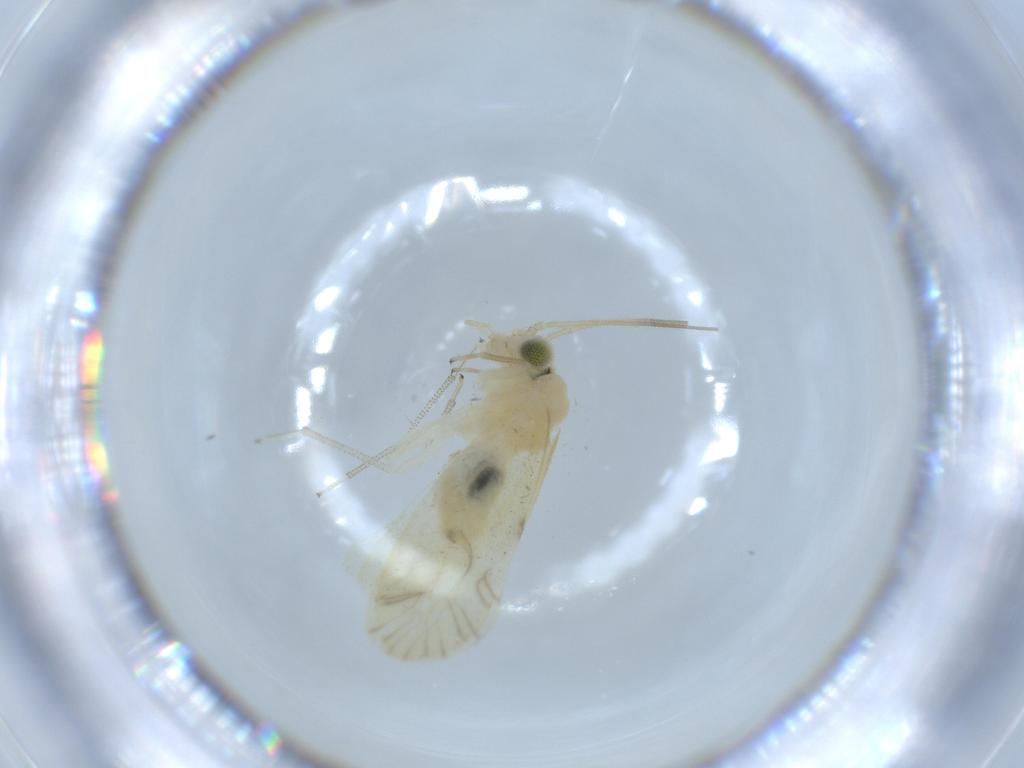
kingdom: Animalia
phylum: Arthropoda
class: Insecta
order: Psocodea
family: Caeciliusidae
